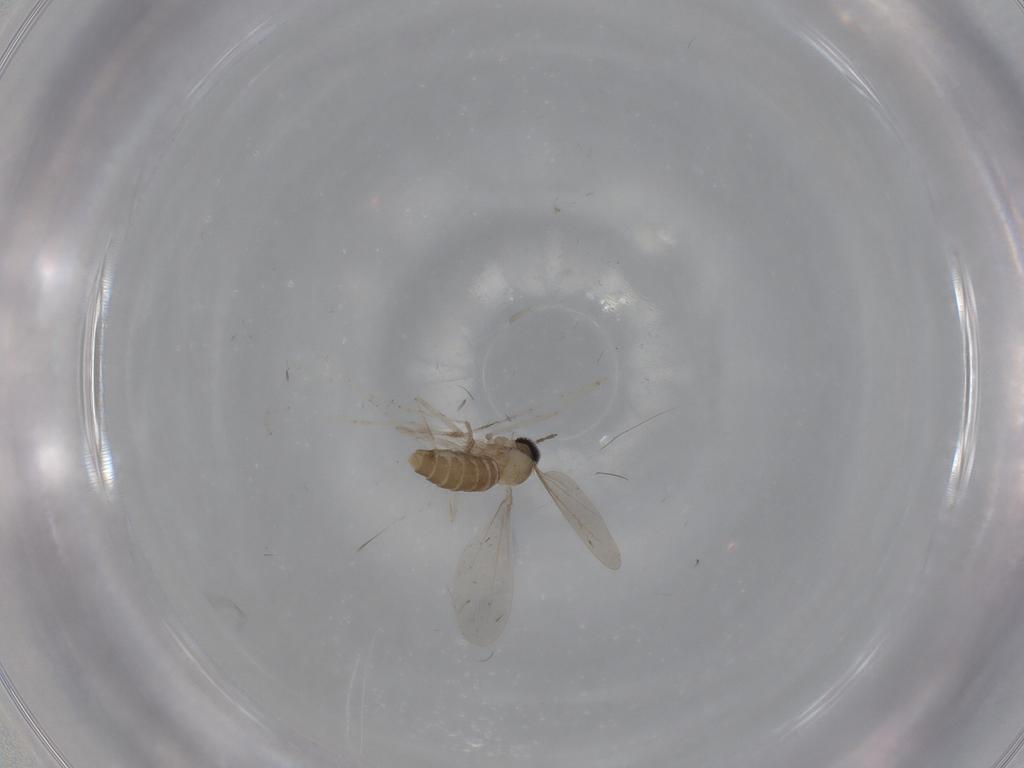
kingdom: Animalia
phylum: Arthropoda
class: Insecta
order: Diptera
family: Cecidomyiidae
